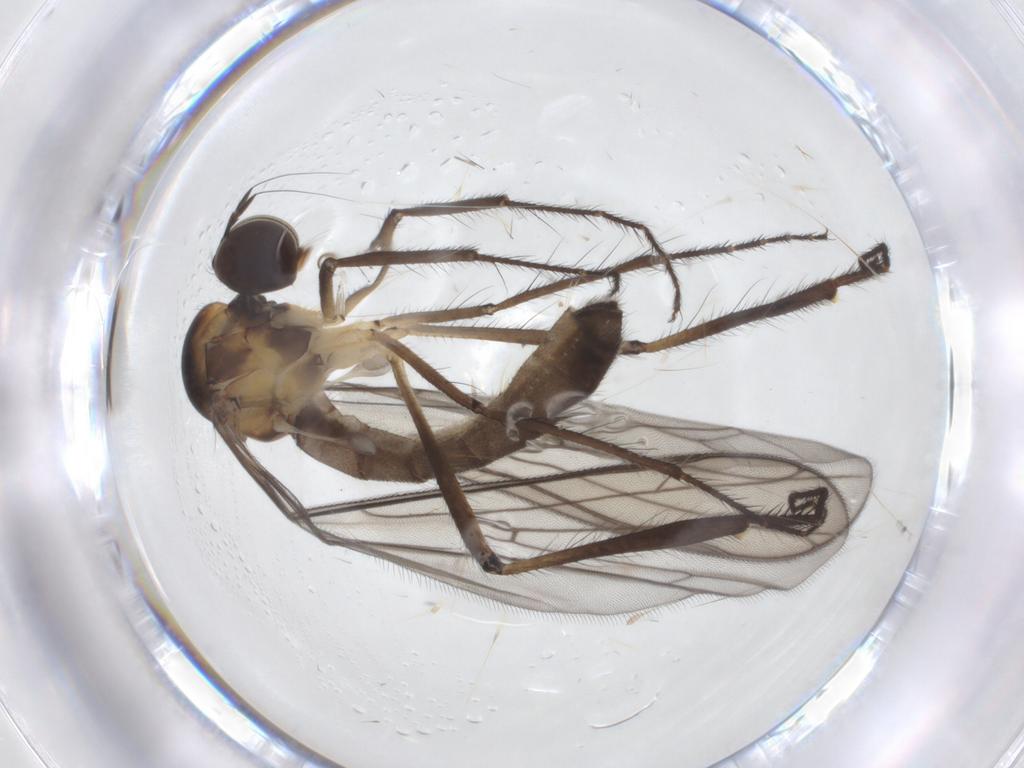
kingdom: Animalia
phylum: Arthropoda
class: Insecta
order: Diptera
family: Hybotidae
